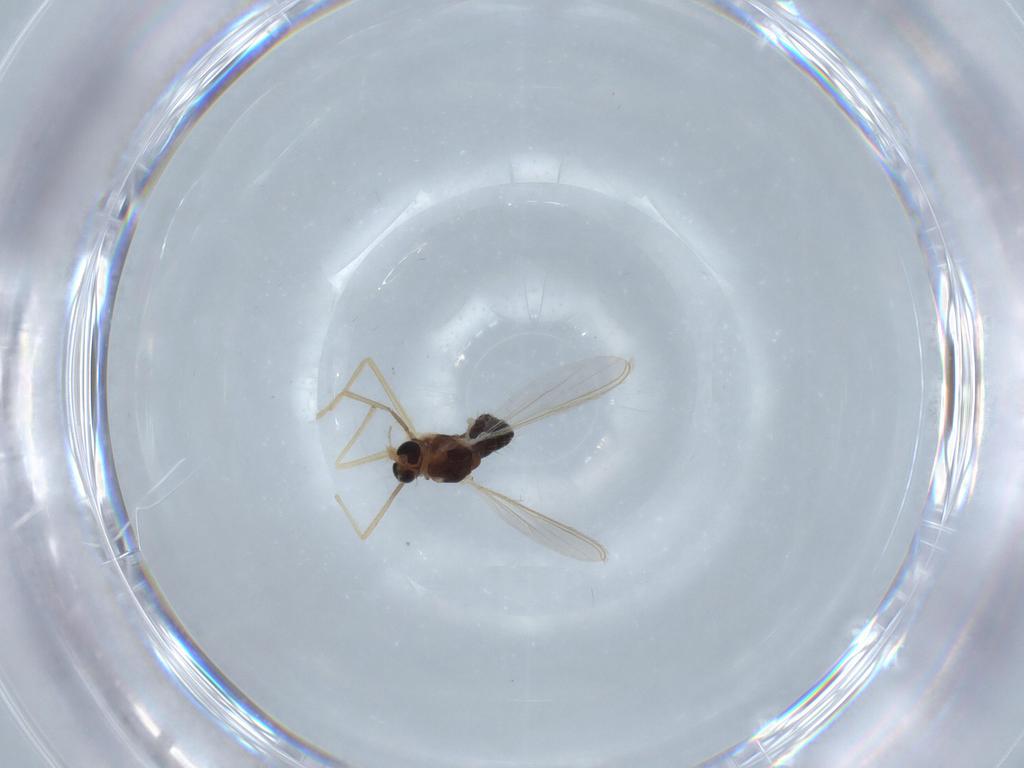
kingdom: Animalia
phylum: Arthropoda
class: Insecta
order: Diptera
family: Chironomidae
